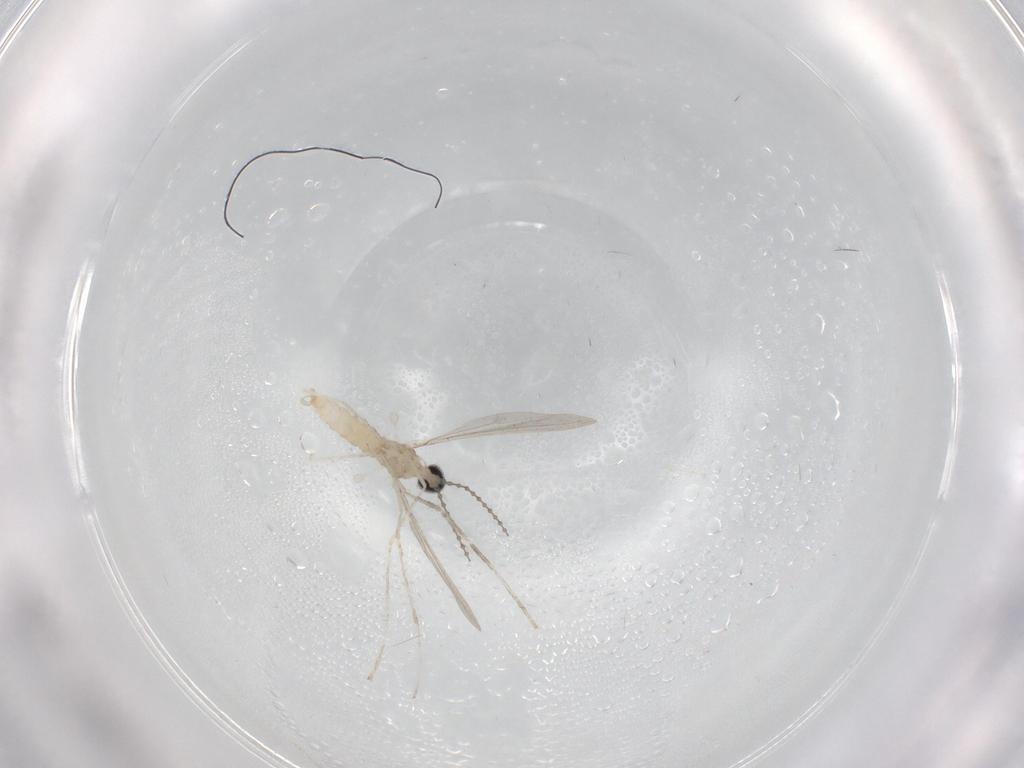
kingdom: Animalia
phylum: Arthropoda
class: Insecta
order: Diptera
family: Cecidomyiidae
